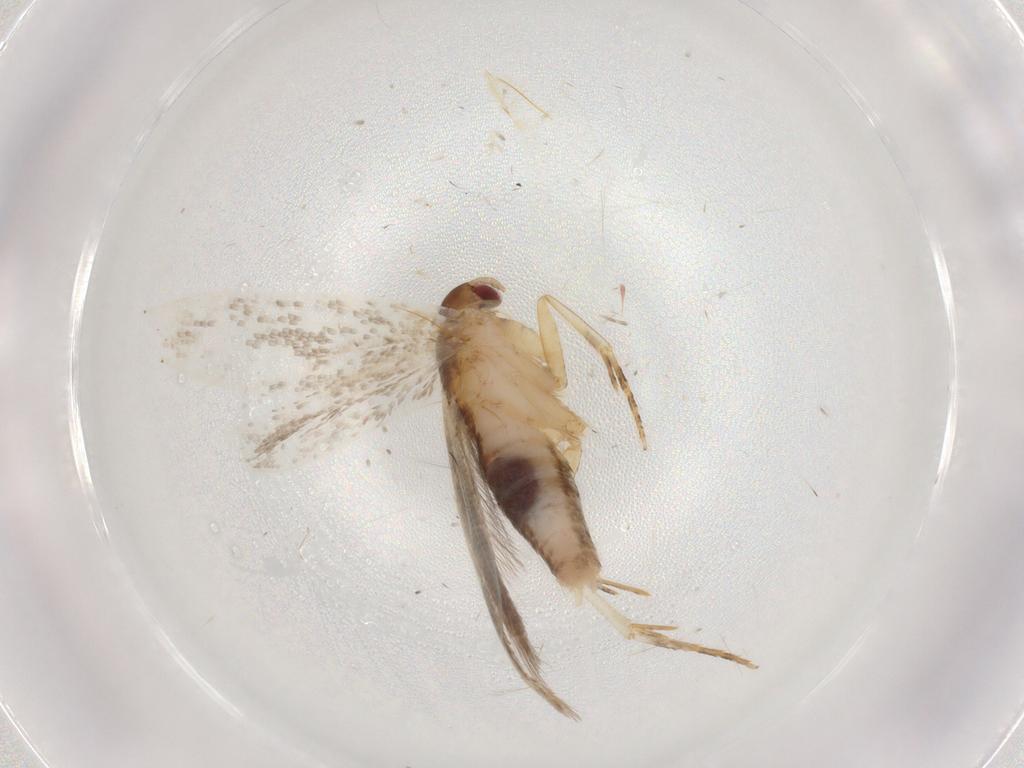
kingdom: Animalia
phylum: Arthropoda
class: Insecta
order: Lepidoptera
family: Gelechiidae
